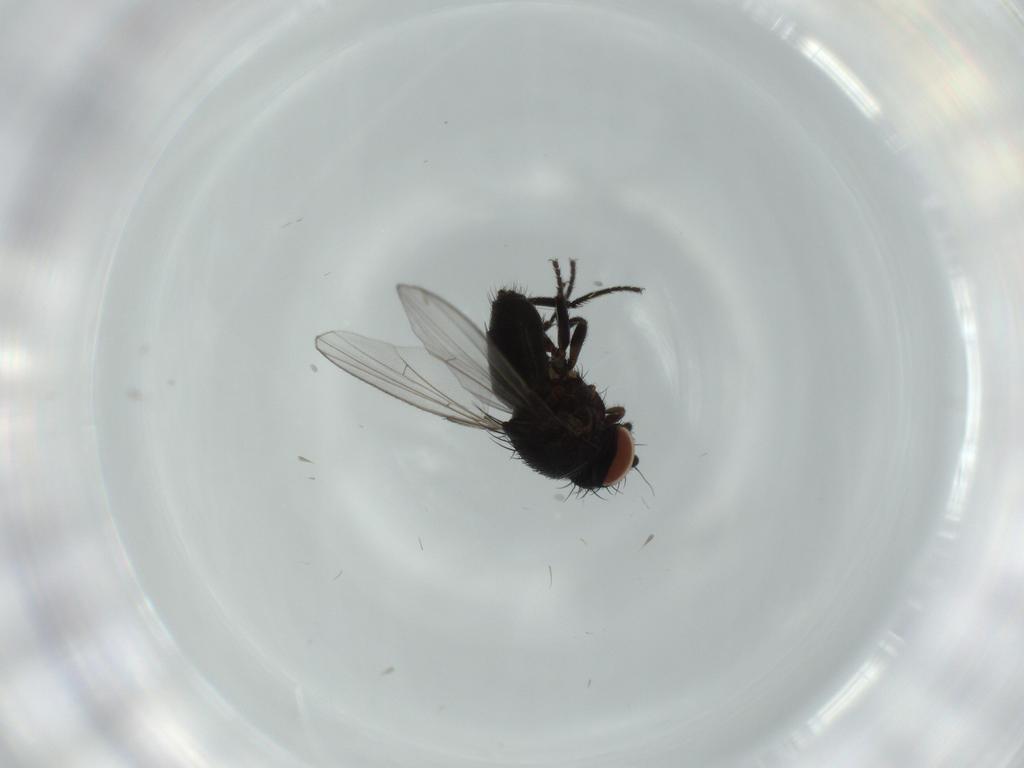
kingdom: Animalia
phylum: Arthropoda
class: Insecta
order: Diptera
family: Milichiidae
